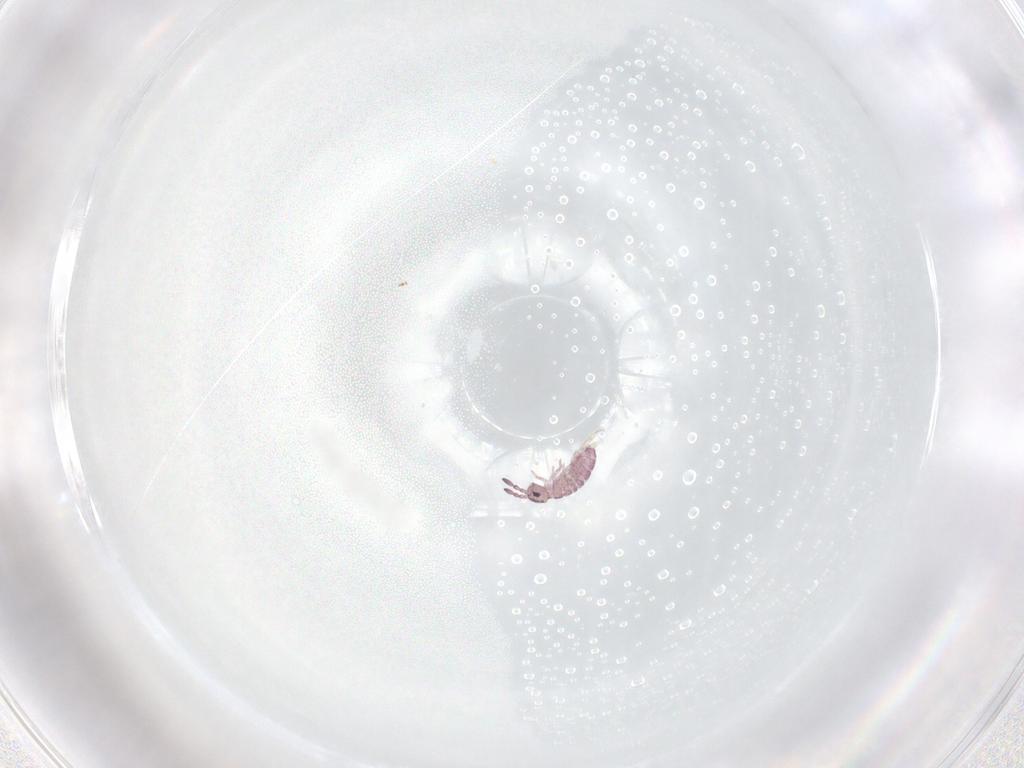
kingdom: Animalia
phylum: Arthropoda
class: Collembola
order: Entomobryomorpha
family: Isotomidae
